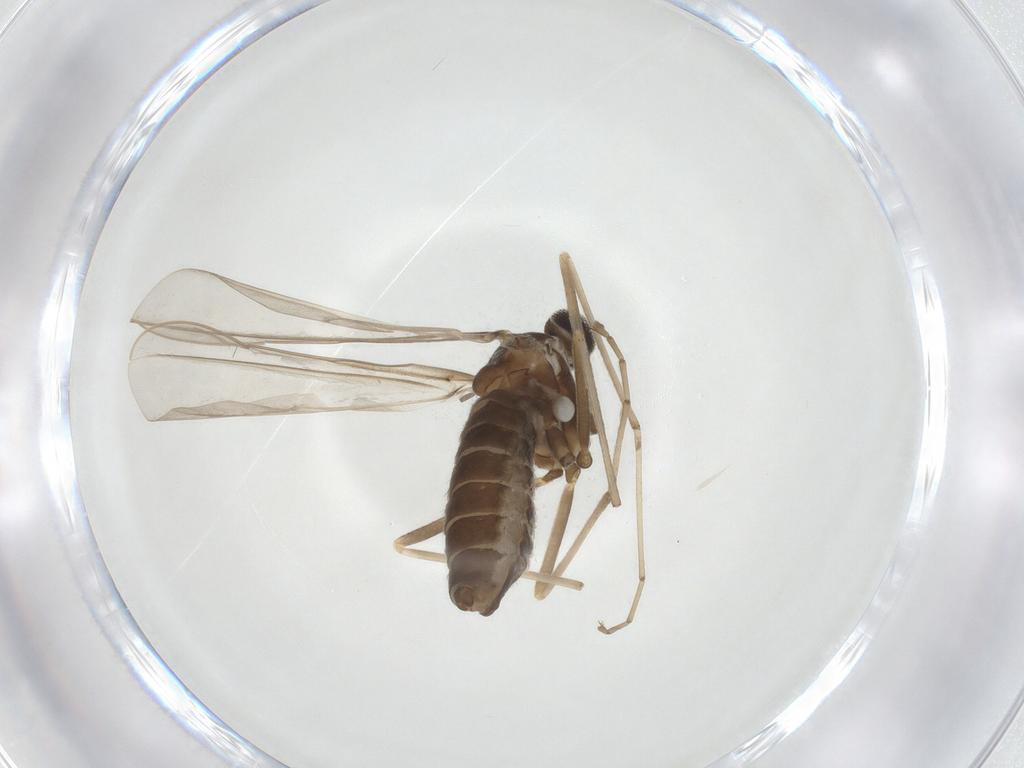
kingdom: Animalia
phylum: Arthropoda
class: Insecta
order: Diptera
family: Cecidomyiidae
